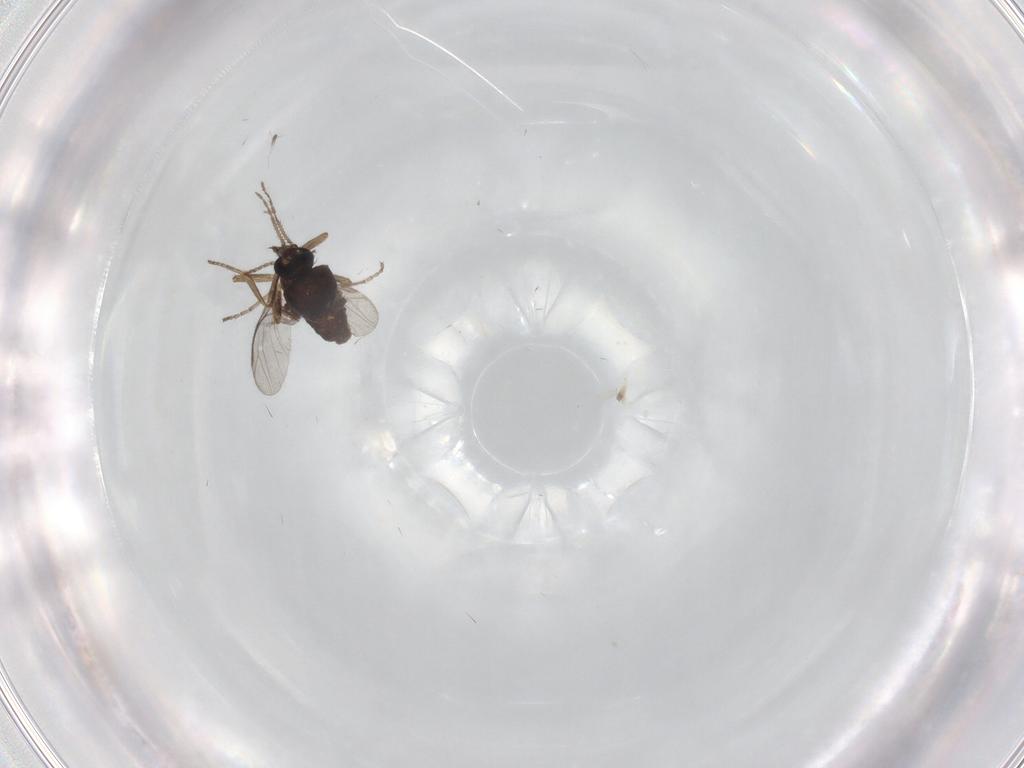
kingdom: Animalia
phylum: Arthropoda
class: Insecta
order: Diptera
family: Ceratopogonidae
